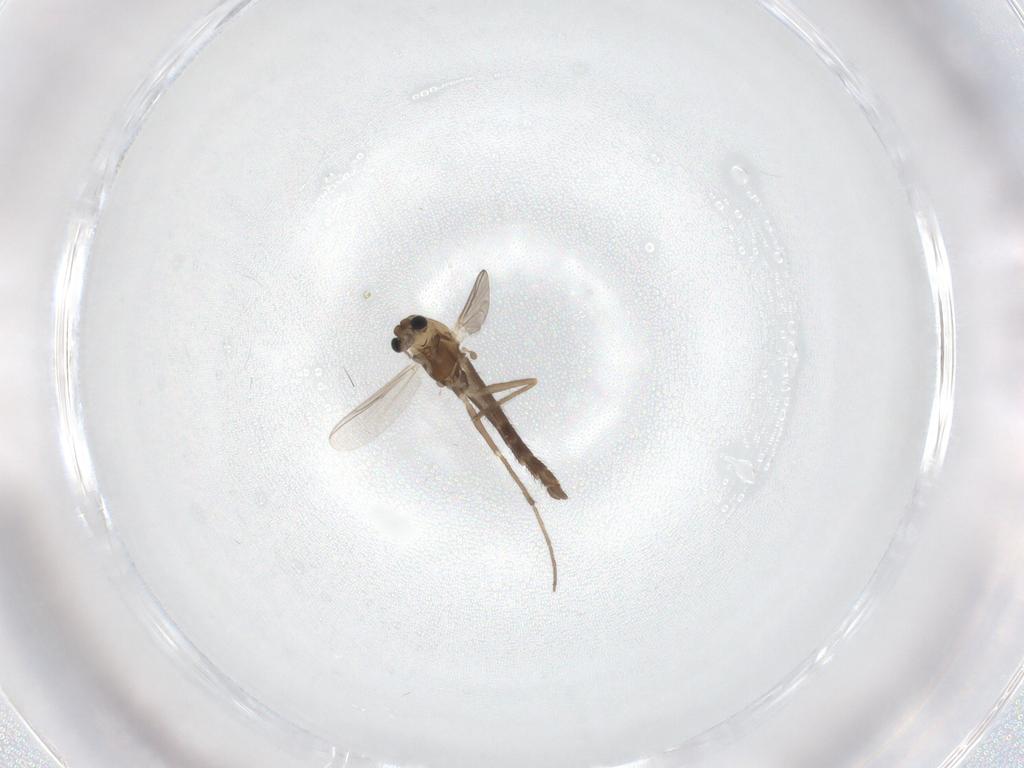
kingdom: Animalia
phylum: Arthropoda
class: Insecta
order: Diptera
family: Chironomidae
